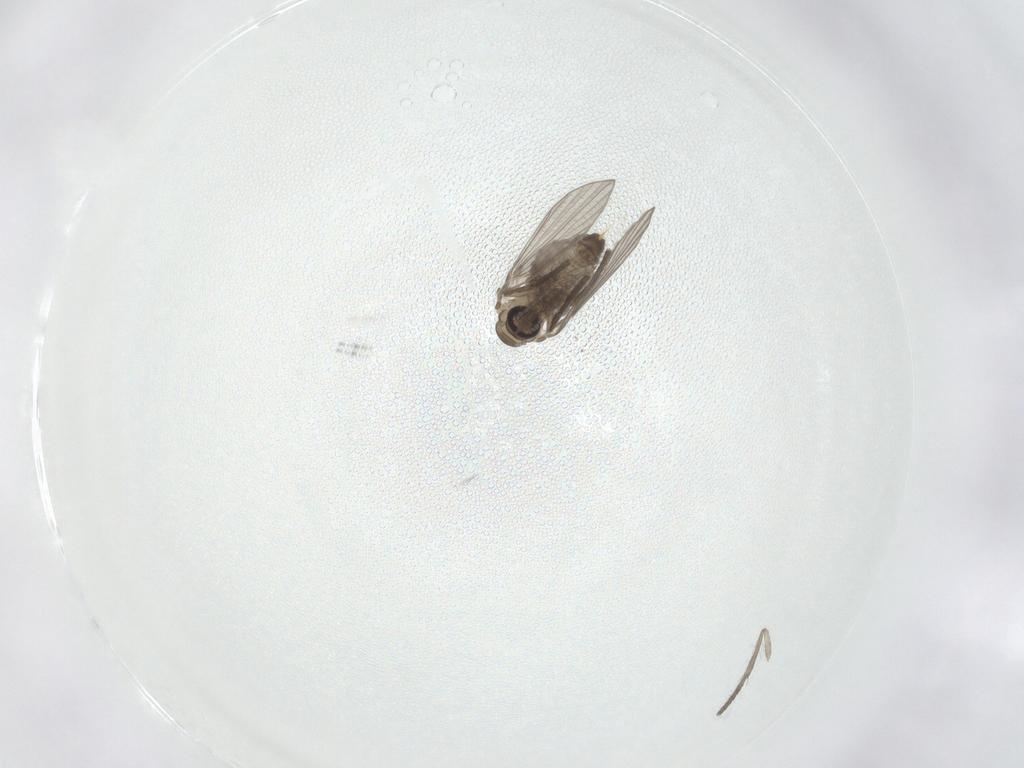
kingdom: Animalia
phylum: Arthropoda
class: Insecta
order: Diptera
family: Psychodidae
